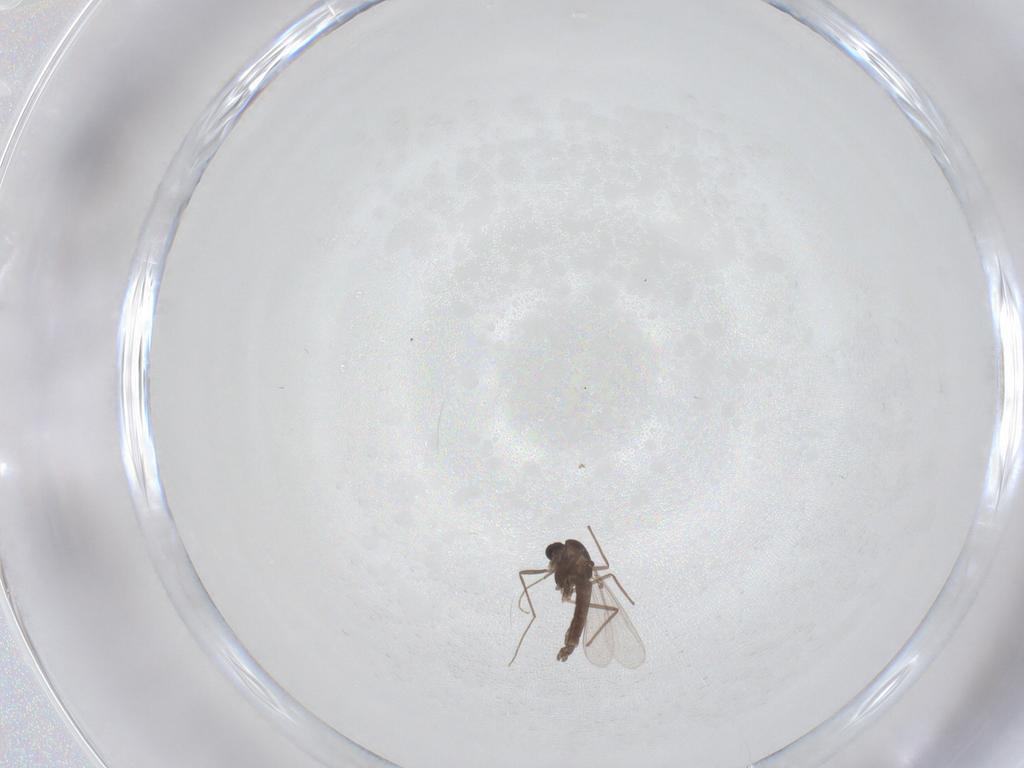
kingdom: Animalia
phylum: Arthropoda
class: Insecta
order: Diptera
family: Chironomidae
